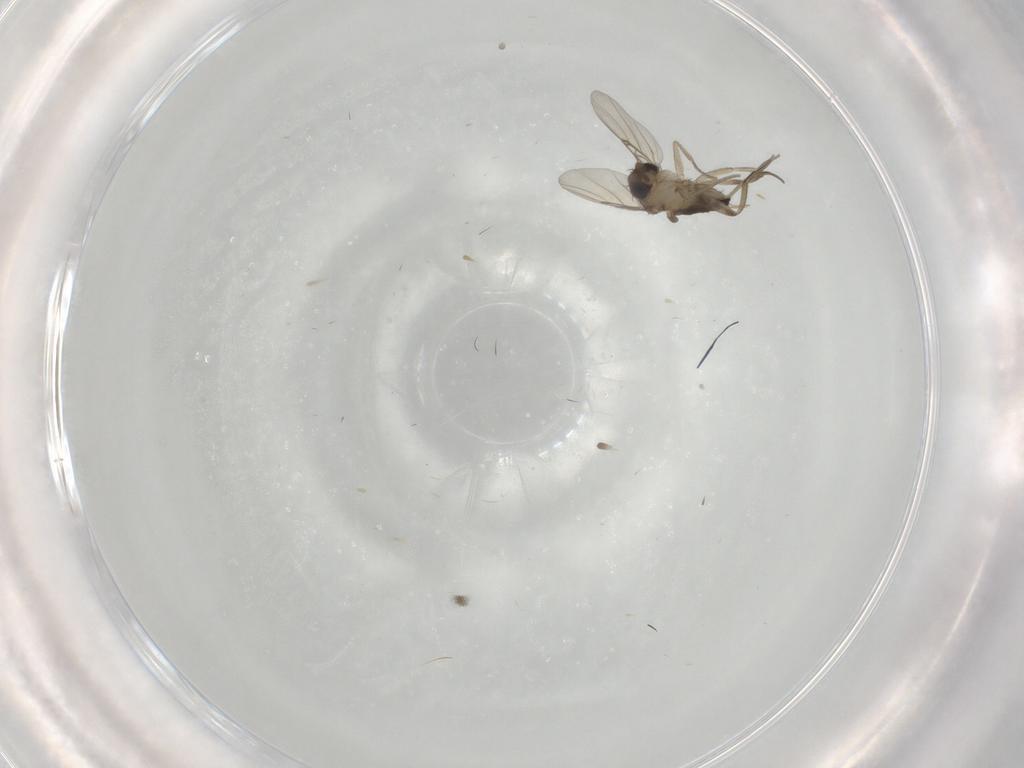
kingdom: Animalia
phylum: Arthropoda
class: Insecta
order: Diptera
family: Phoridae
